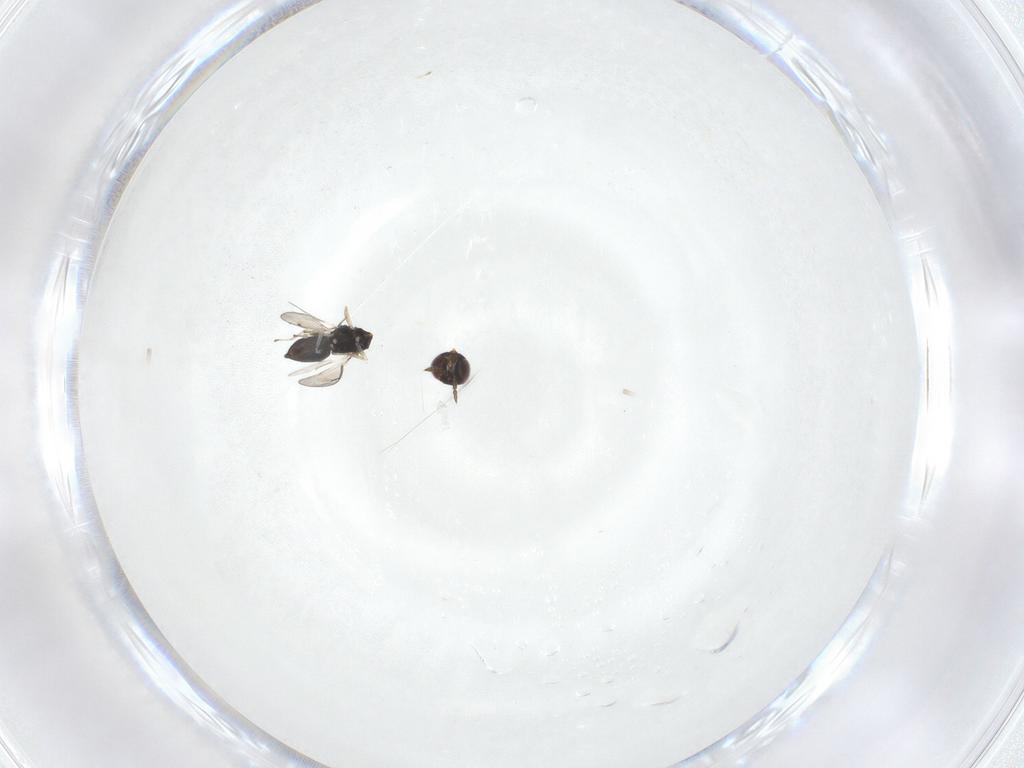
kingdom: Animalia
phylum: Arthropoda
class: Insecta
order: Hymenoptera
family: Eulophidae
